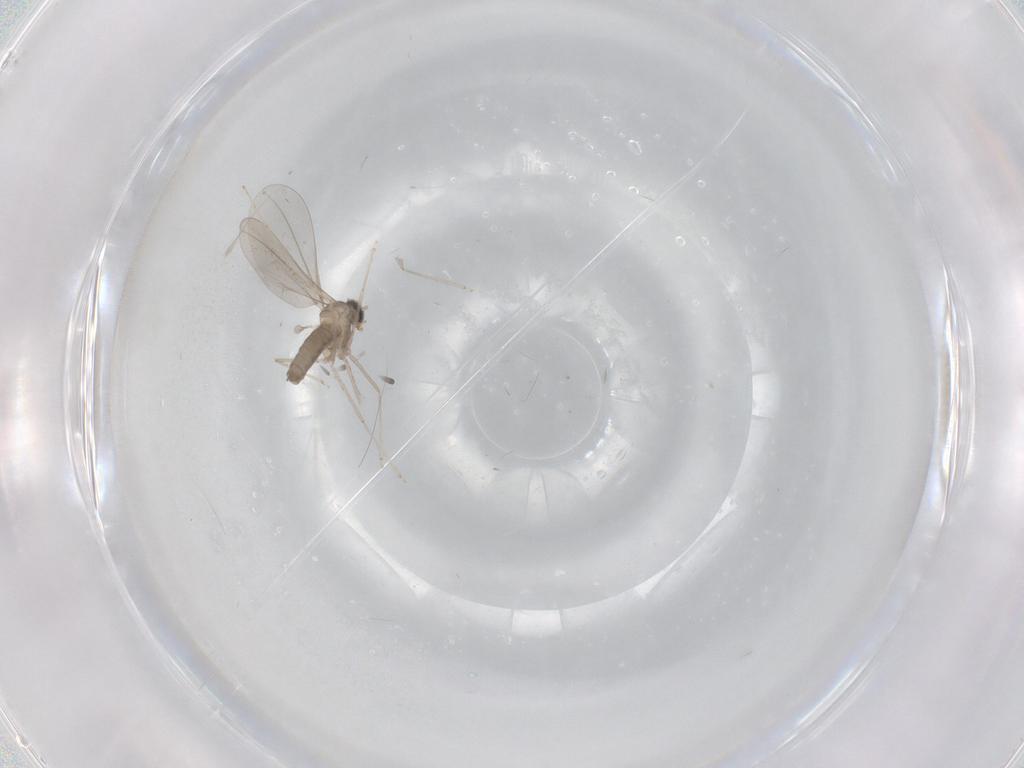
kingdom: Animalia
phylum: Arthropoda
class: Insecta
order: Diptera
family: Cecidomyiidae
